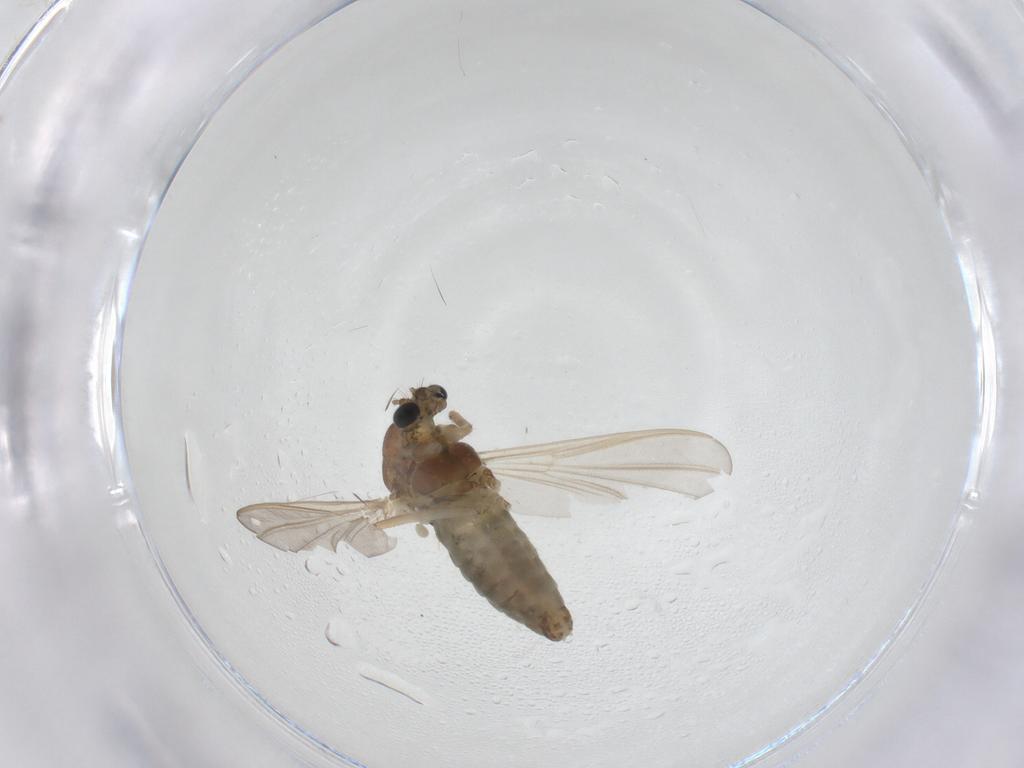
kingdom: Animalia
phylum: Arthropoda
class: Insecta
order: Diptera
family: Chironomidae
